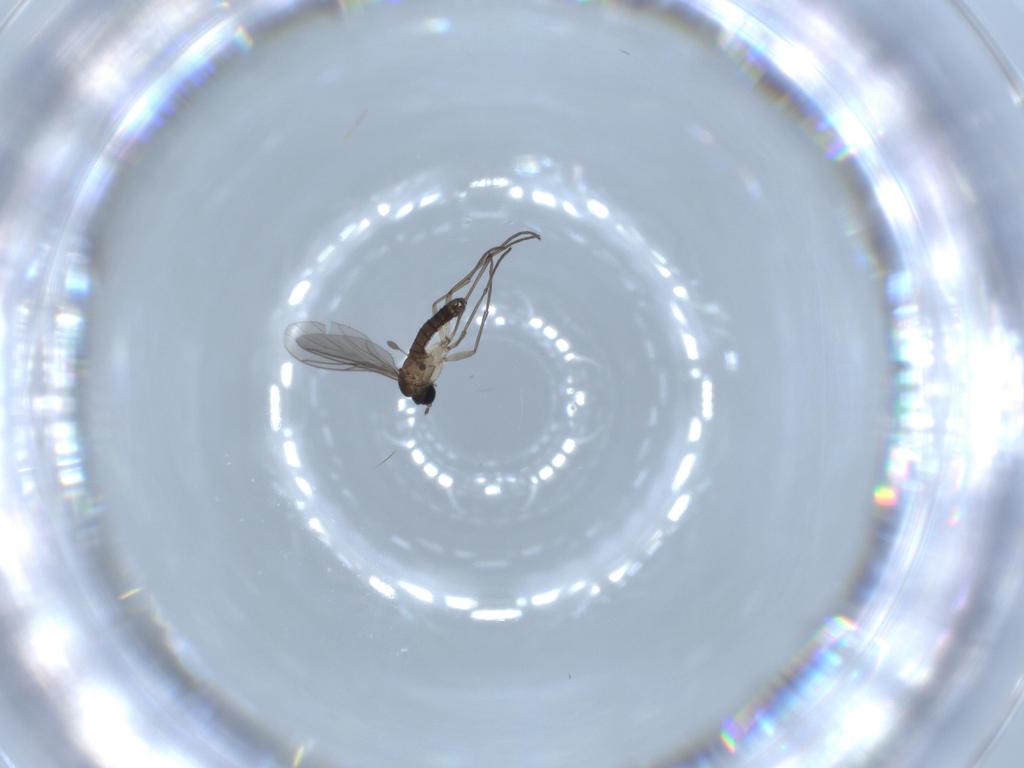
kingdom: Animalia
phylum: Arthropoda
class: Insecta
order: Diptera
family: Sciaridae
